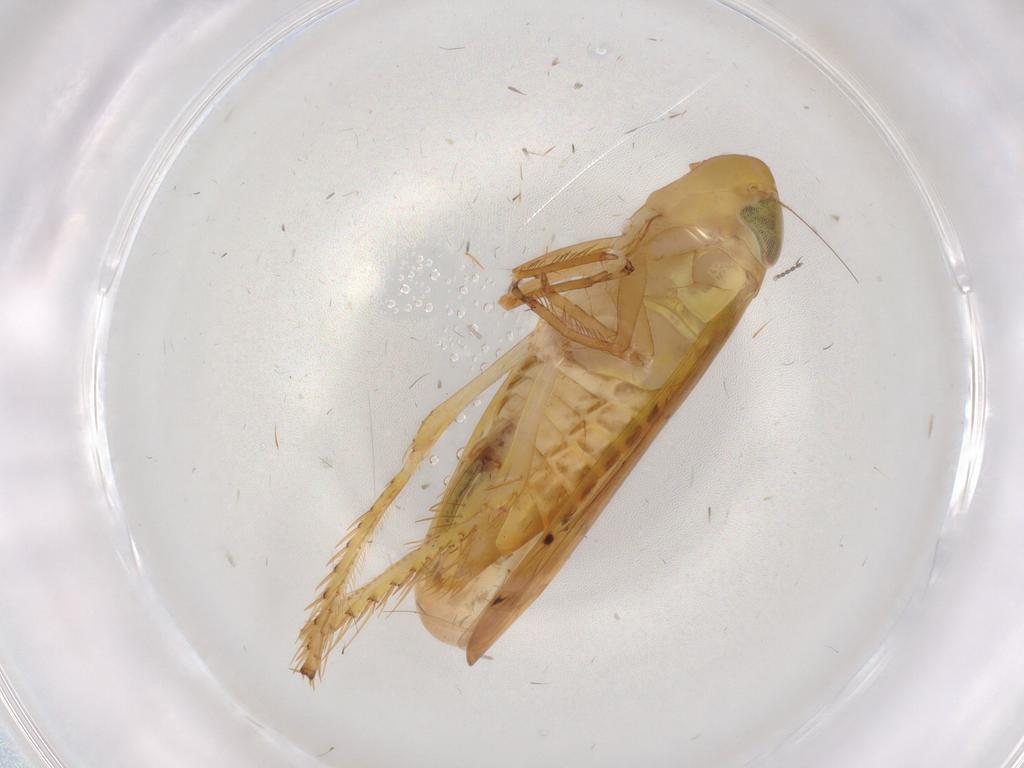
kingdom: Animalia
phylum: Arthropoda
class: Insecta
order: Hemiptera
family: Cicadellidae
